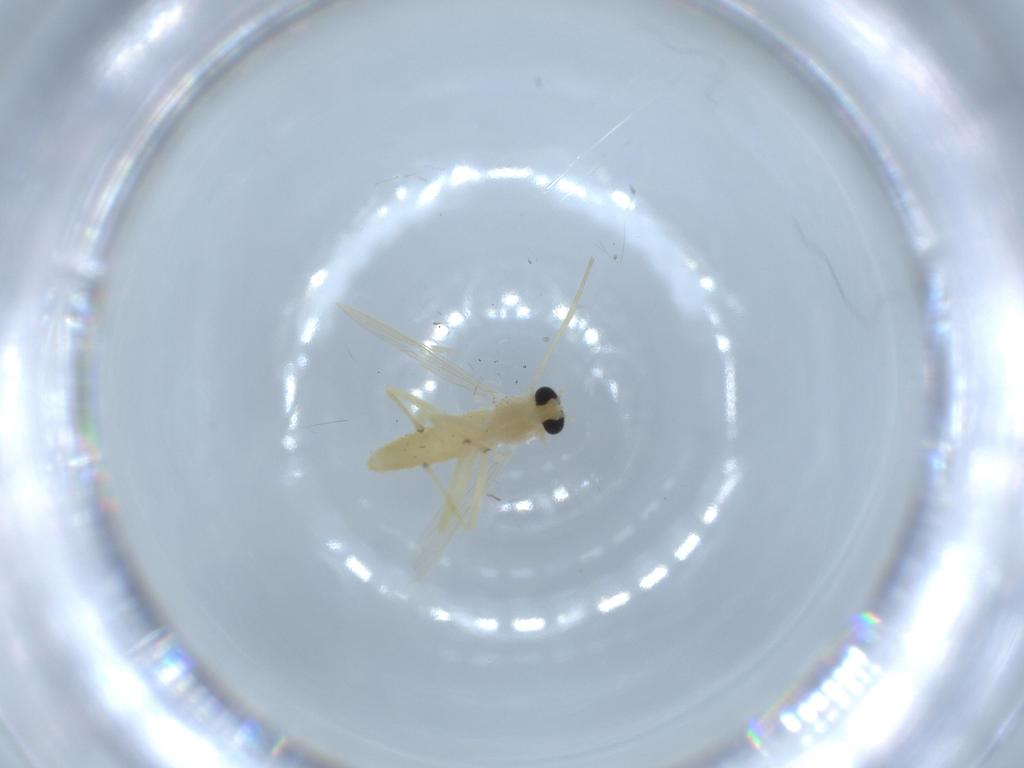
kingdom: Animalia
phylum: Arthropoda
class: Insecta
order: Diptera
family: Chironomidae
